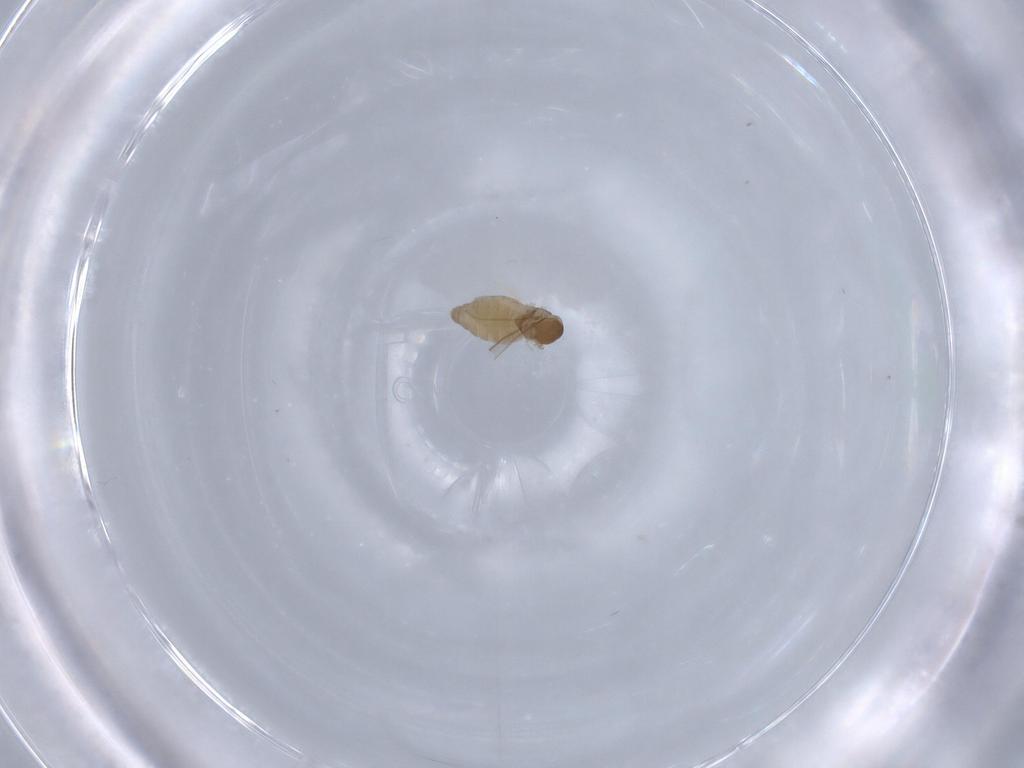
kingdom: Animalia
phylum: Arthropoda
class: Insecta
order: Diptera
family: Cecidomyiidae
